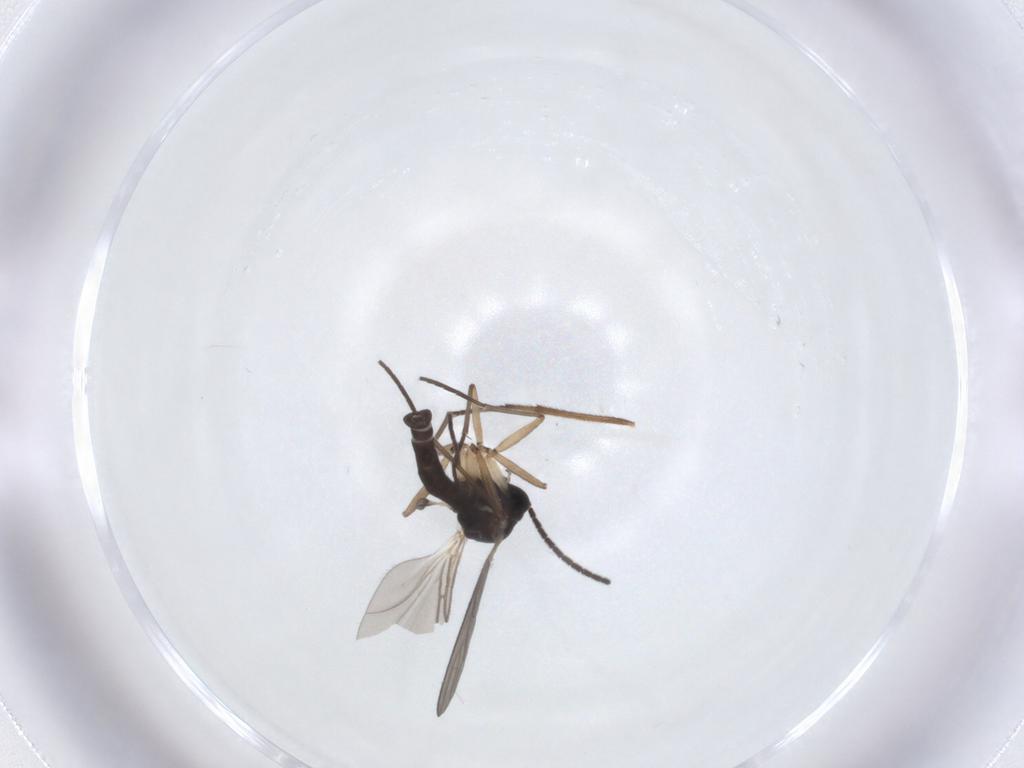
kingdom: Animalia
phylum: Arthropoda
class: Insecta
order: Diptera
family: Sciaridae
